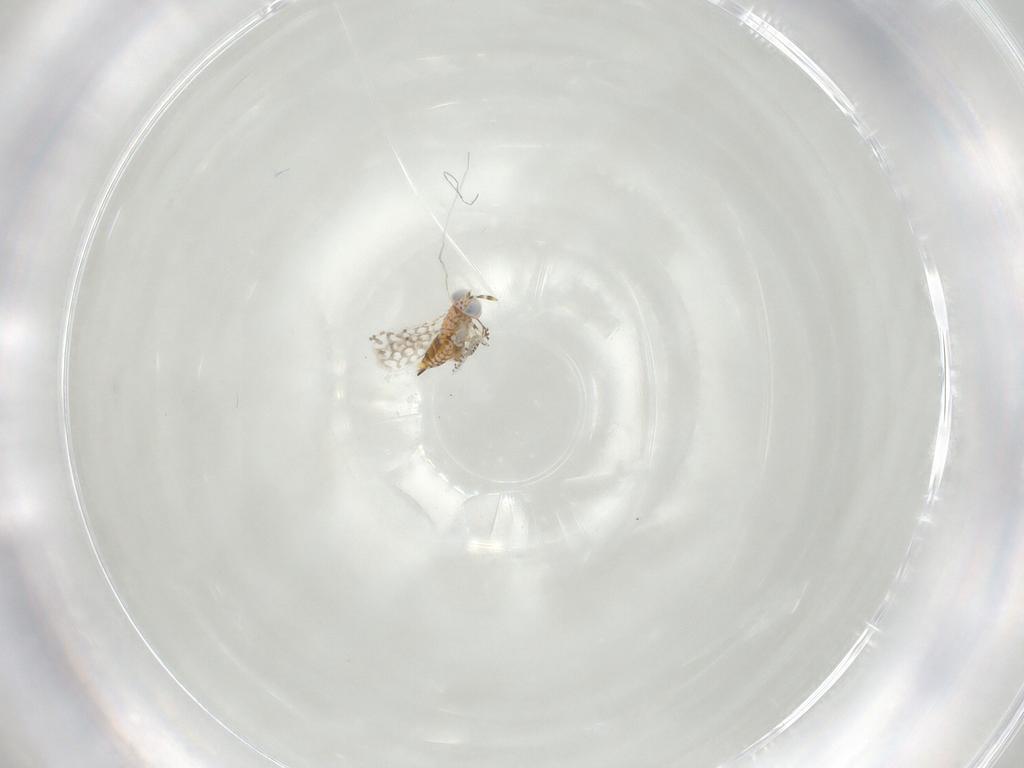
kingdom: Animalia
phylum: Arthropoda
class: Insecta
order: Hymenoptera
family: Aphelinidae
